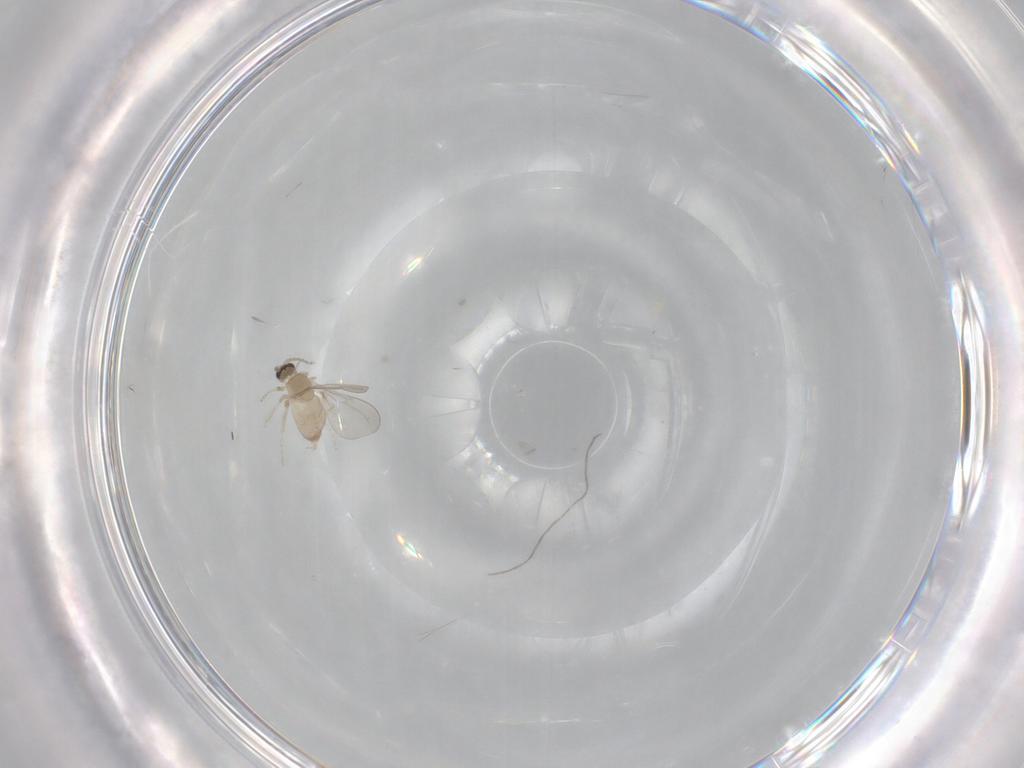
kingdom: Animalia
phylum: Arthropoda
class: Insecta
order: Diptera
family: Cecidomyiidae
